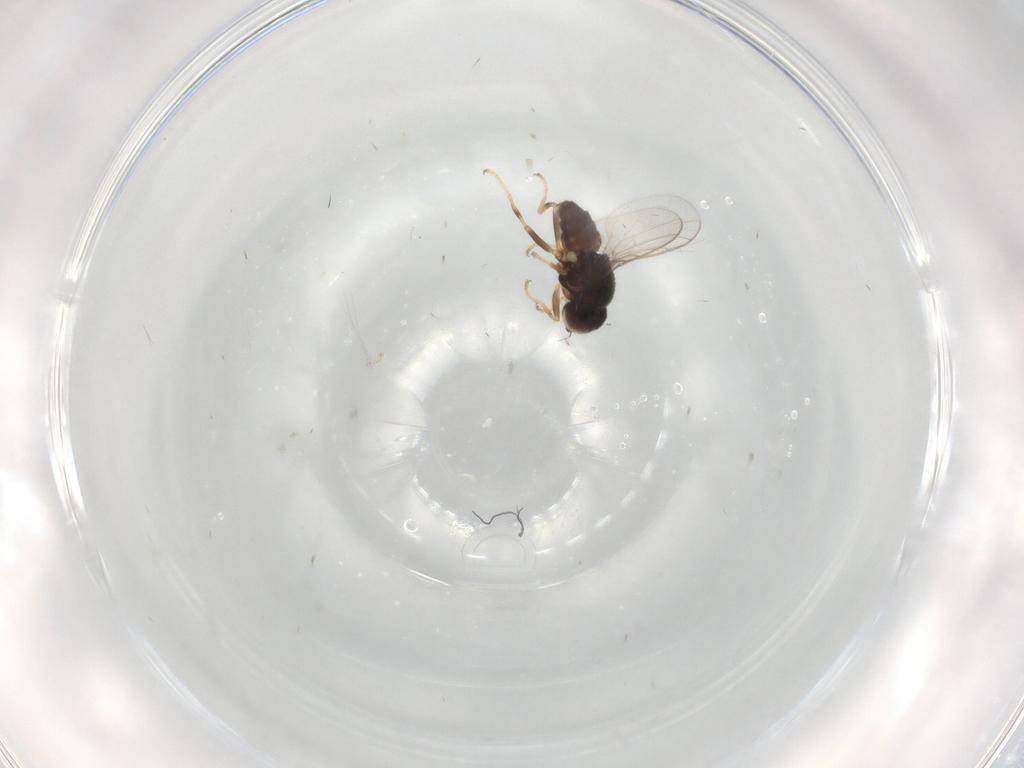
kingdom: Animalia
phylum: Arthropoda
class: Insecta
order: Diptera
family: Chloropidae
